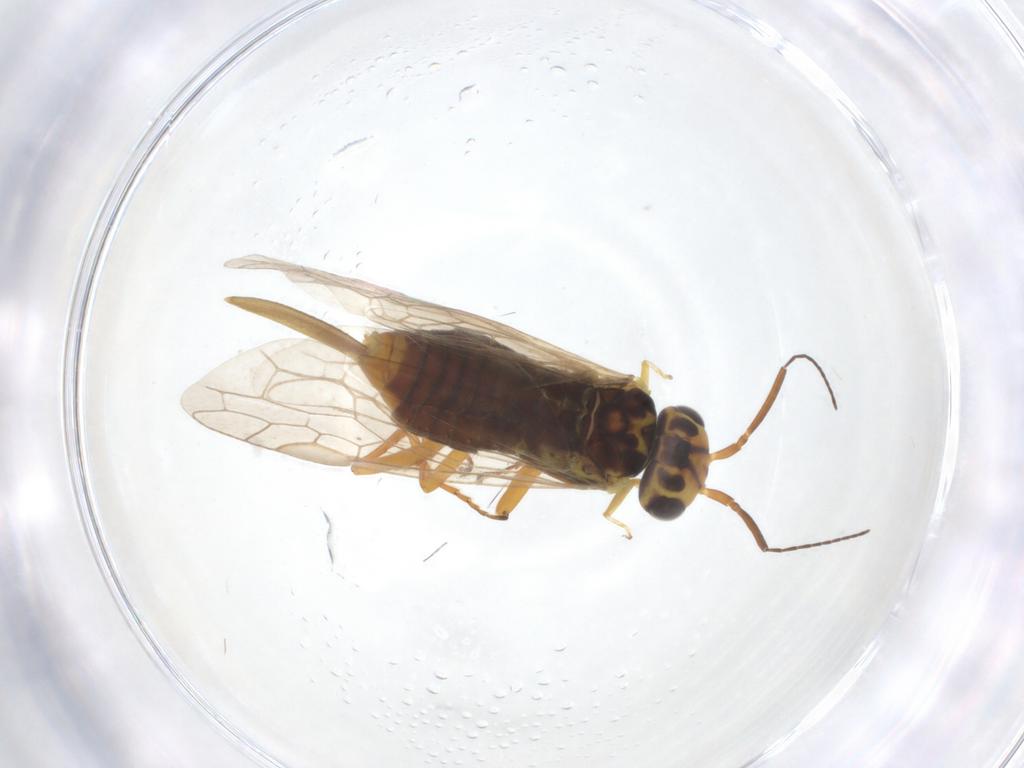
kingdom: Animalia
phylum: Arthropoda
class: Insecta
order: Hymenoptera
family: Xyelidae
